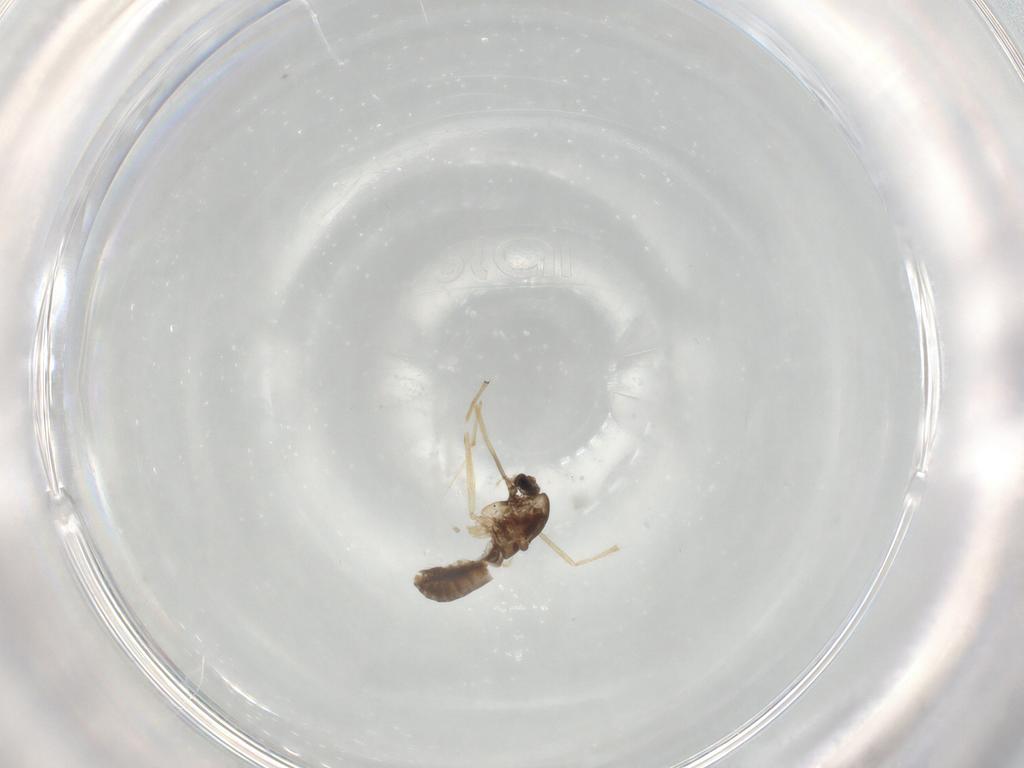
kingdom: Animalia
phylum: Arthropoda
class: Insecta
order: Diptera
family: Chironomidae
